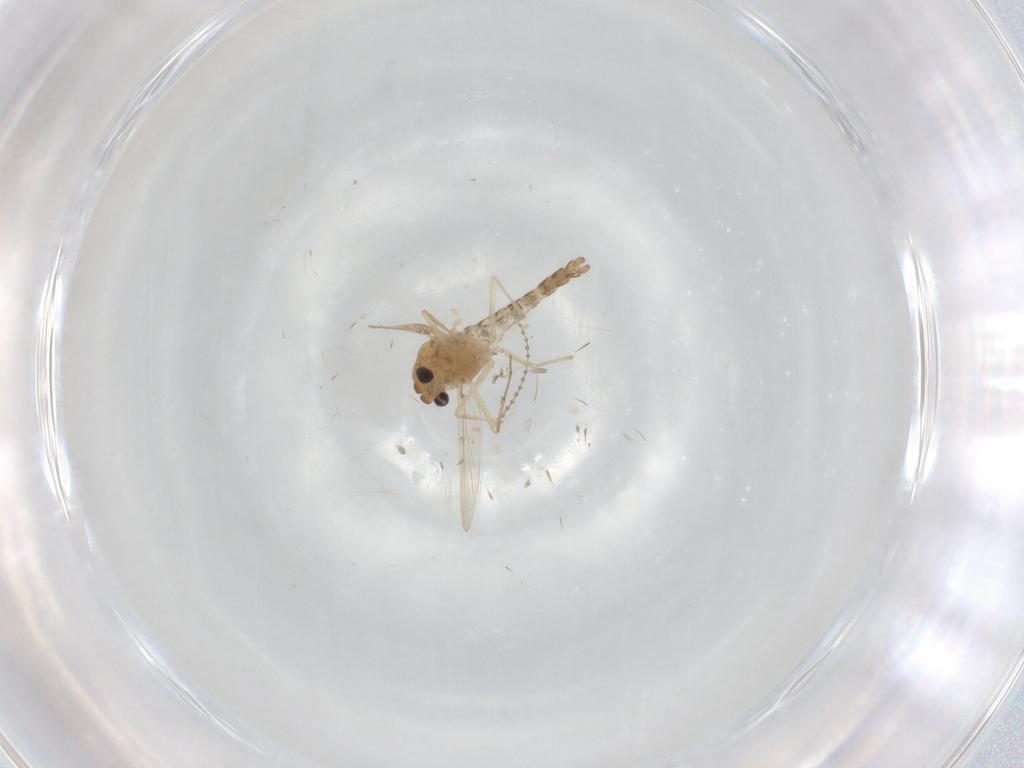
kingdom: Animalia
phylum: Arthropoda
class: Insecta
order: Diptera
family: Chironomidae
